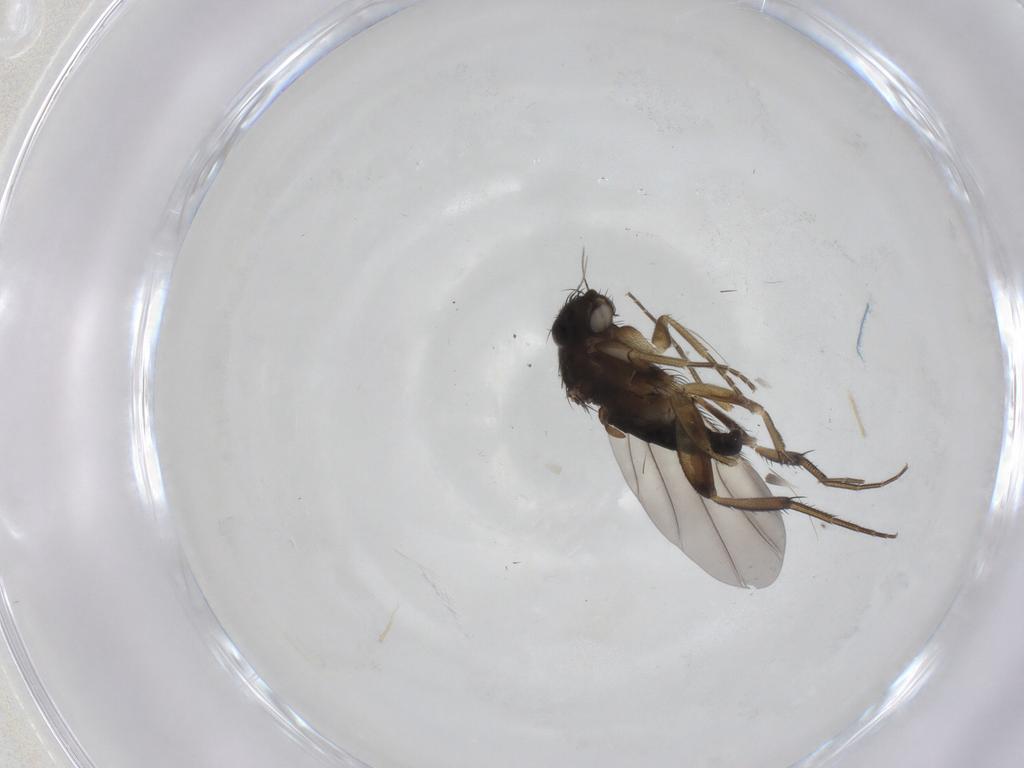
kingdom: Animalia
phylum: Arthropoda
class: Insecta
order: Diptera
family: Phoridae
